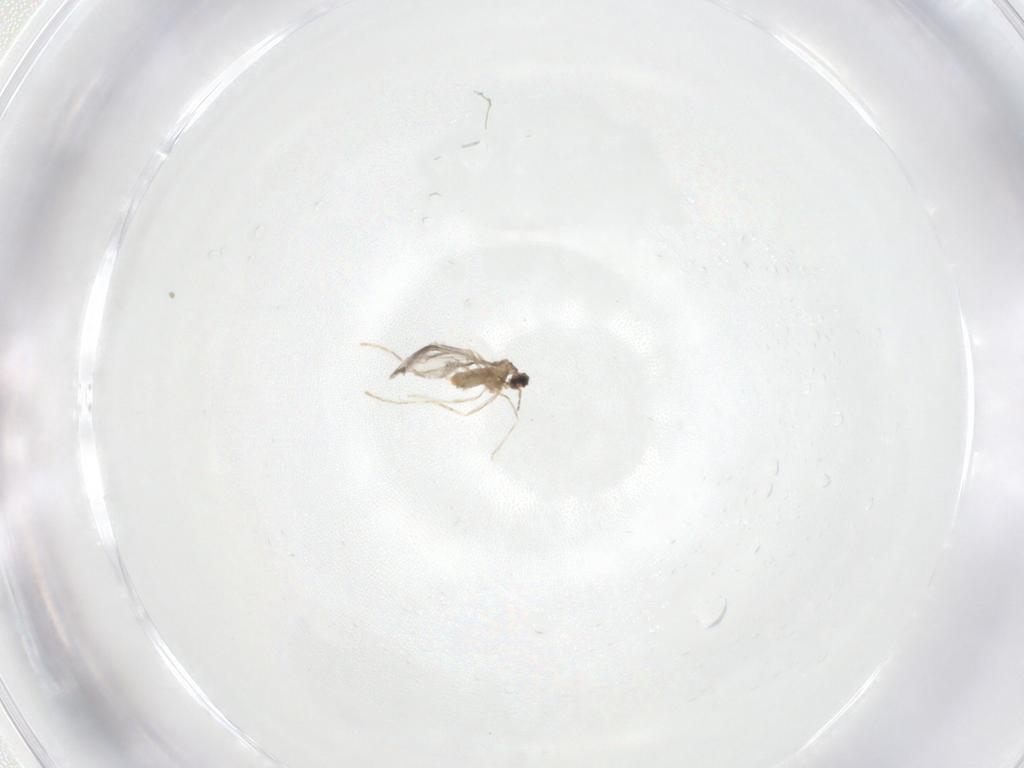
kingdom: Animalia
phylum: Arthropoda
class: Insecta
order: Diptera
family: Cecidomyiidae
